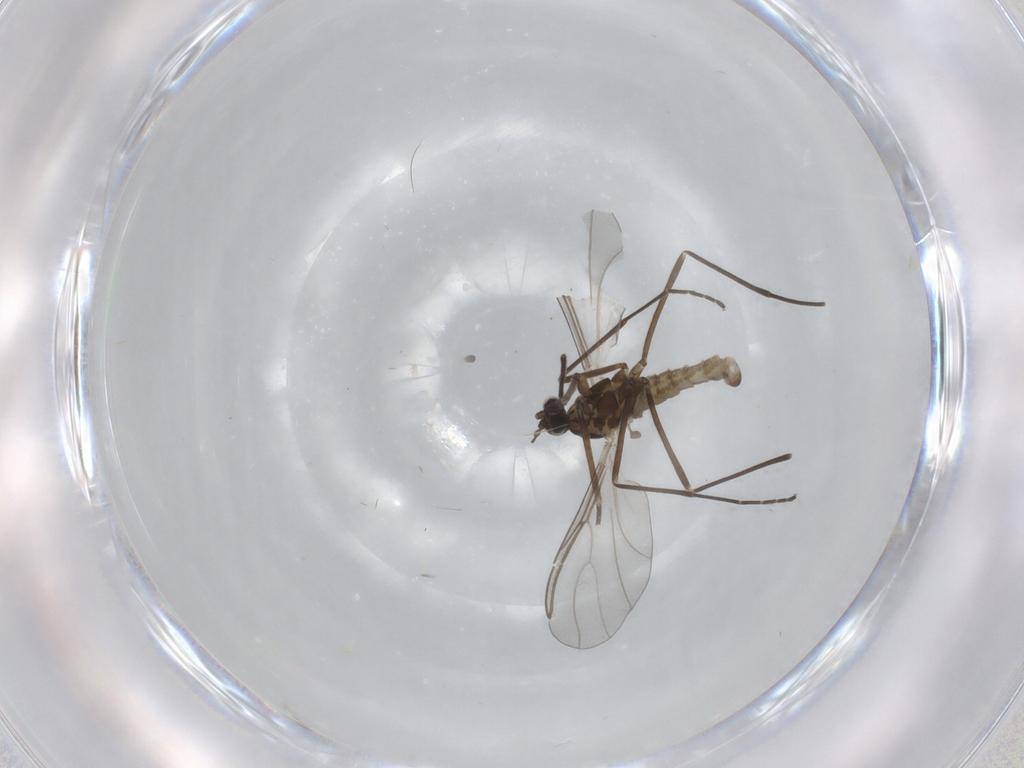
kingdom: Animalia
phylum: Arthropoda
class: Insecta
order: Diptera
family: Cecidomyiidae
